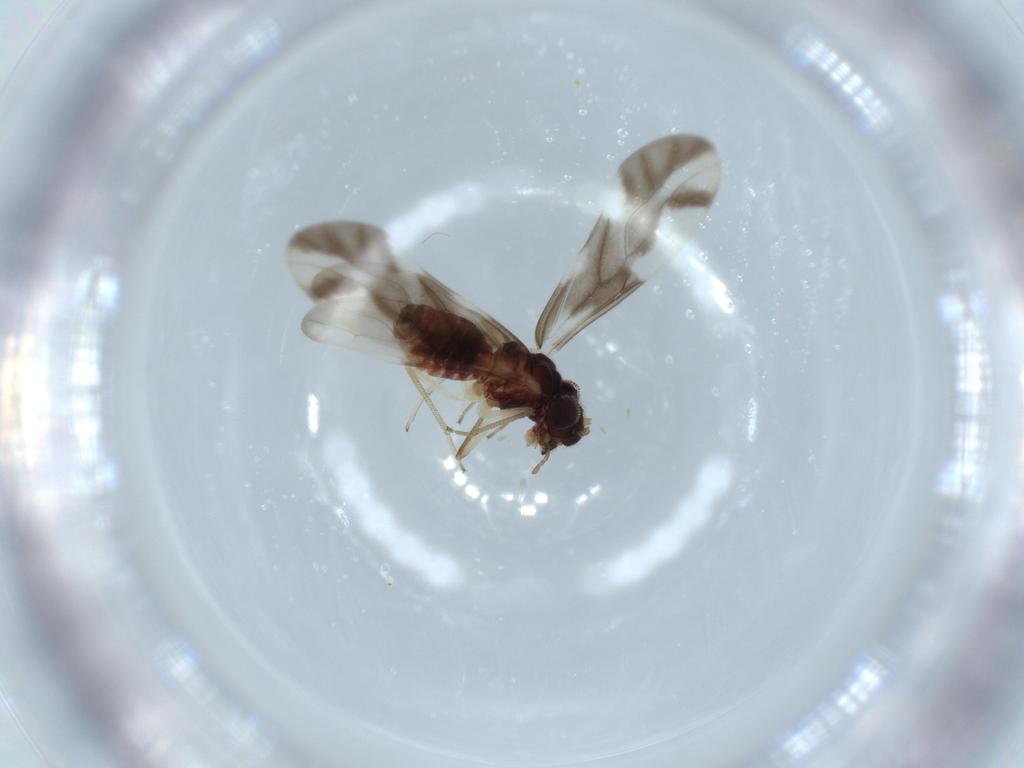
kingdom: Animalia
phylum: Arthropoda
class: Insecta
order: Psocodea
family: Caeciliusidae
